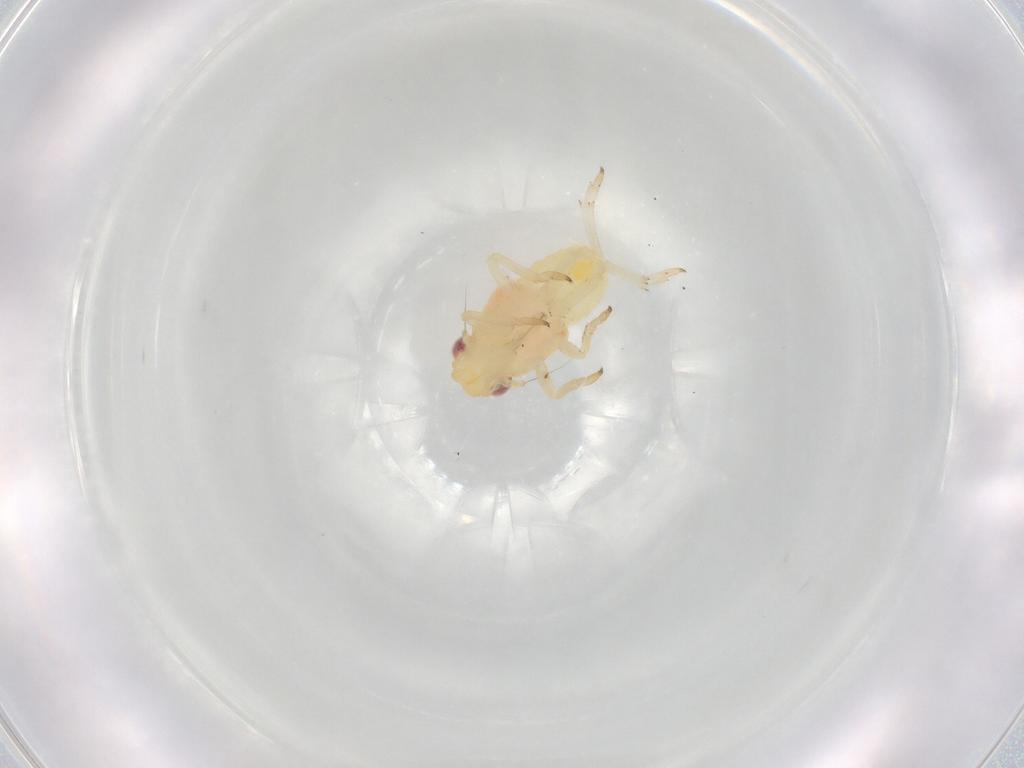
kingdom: Animalia
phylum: Arthropoda
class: Insecta
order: Hemiptera
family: Caliscelidae
